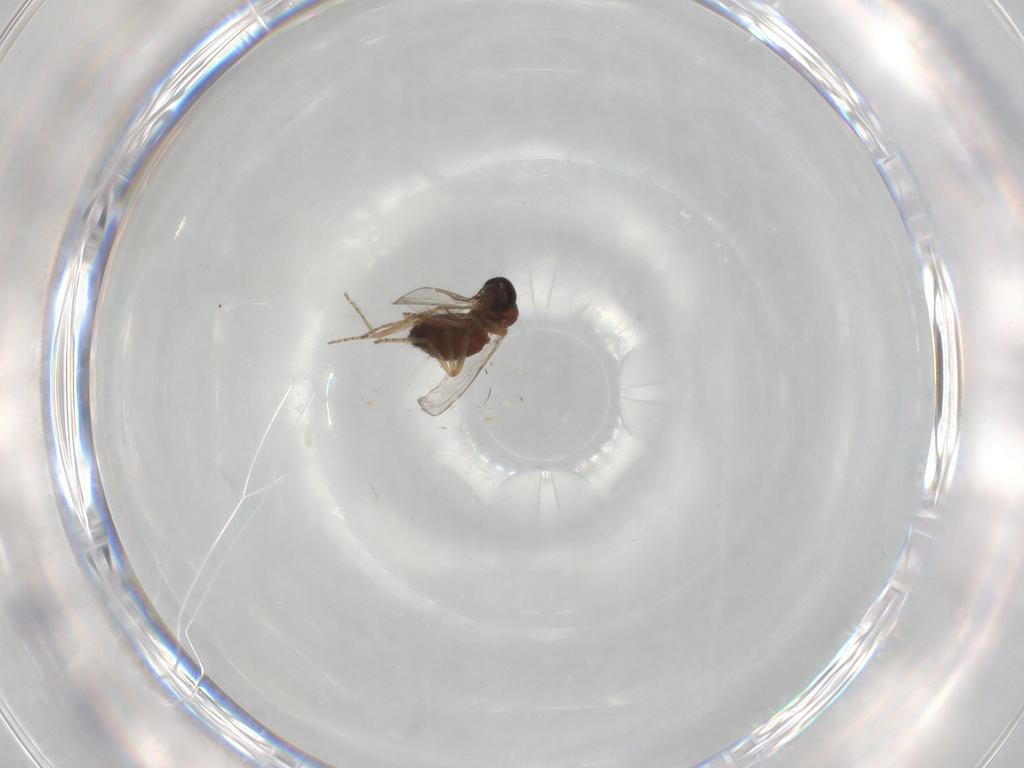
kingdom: Animalia
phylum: Arthropoda
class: Insecta
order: Diptera
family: Ceratopogonidae
